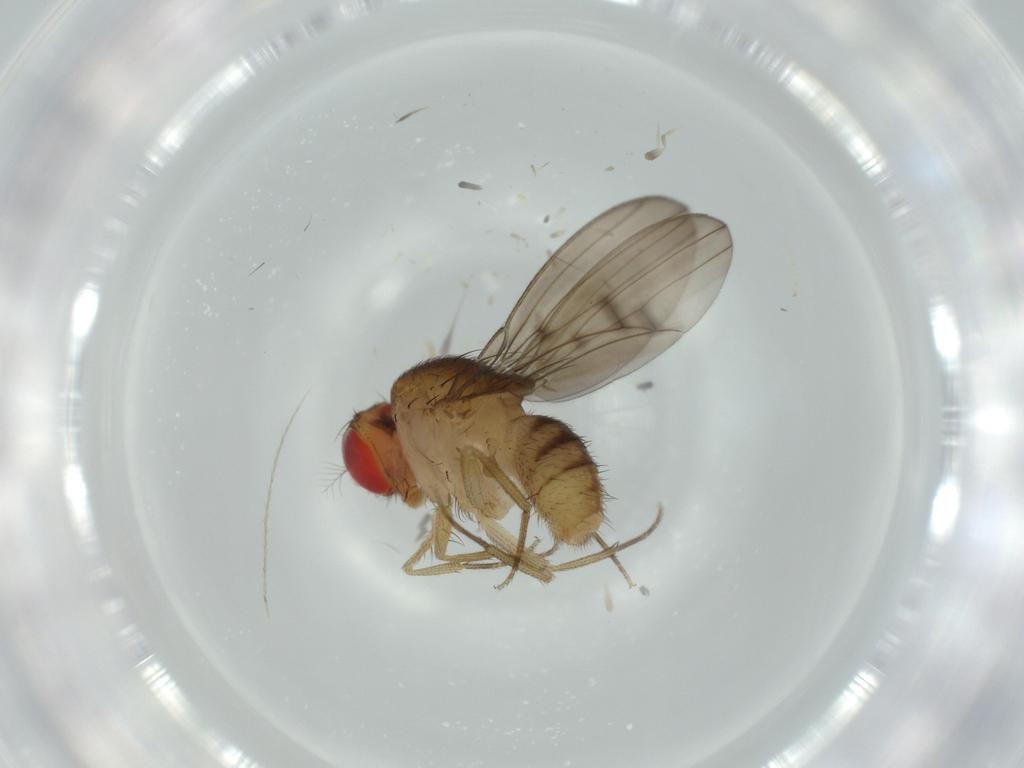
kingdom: Animalia
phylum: Arthropoda
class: Insecta
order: Diptera
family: Drosophilidae
